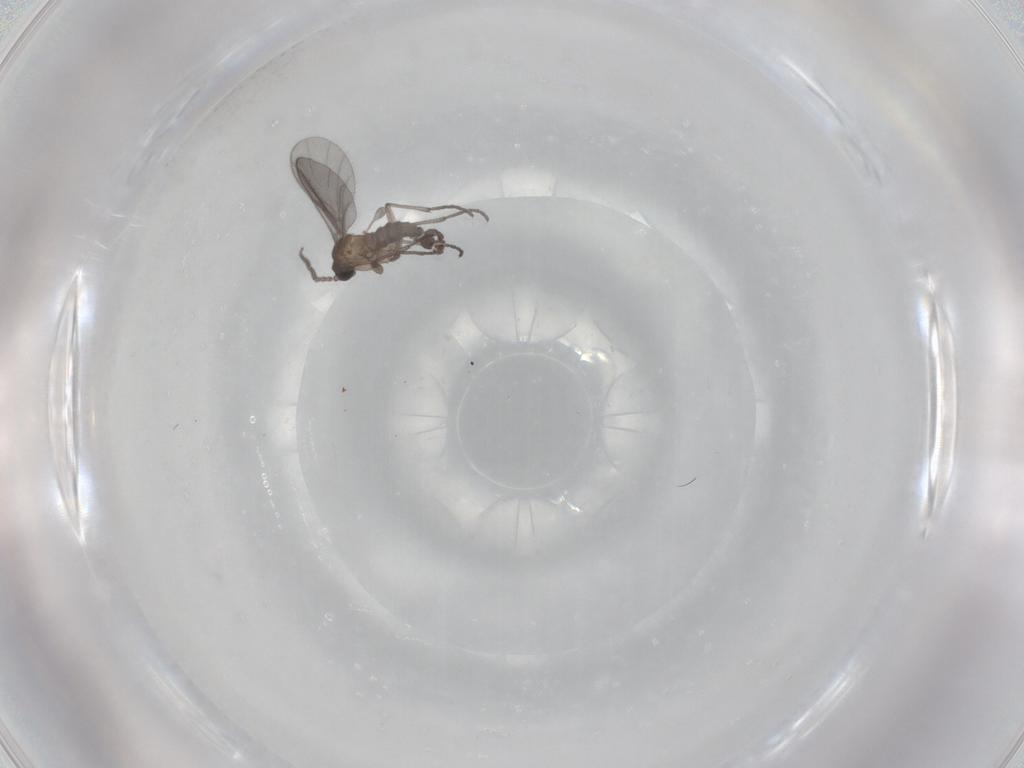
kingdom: Animalia
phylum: Arthropoda
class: Insecta
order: Diptera
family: Sciaridae
